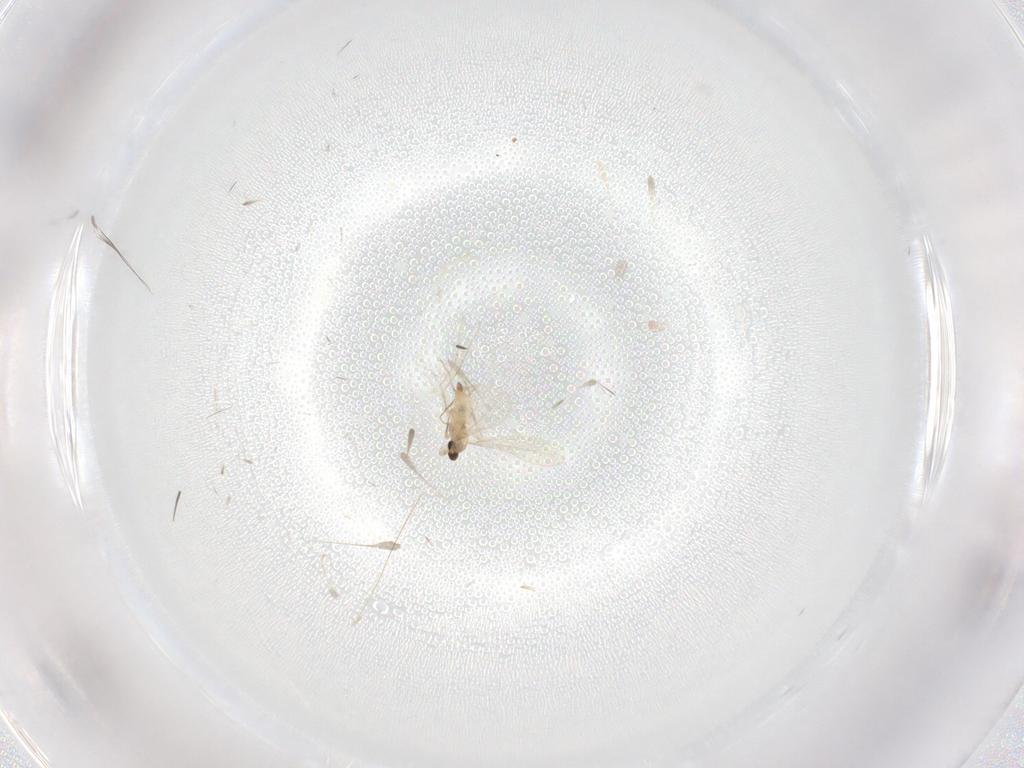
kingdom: Animalia
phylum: Arthropoda
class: Insecta
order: Diptera
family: Cecidomyiidae
